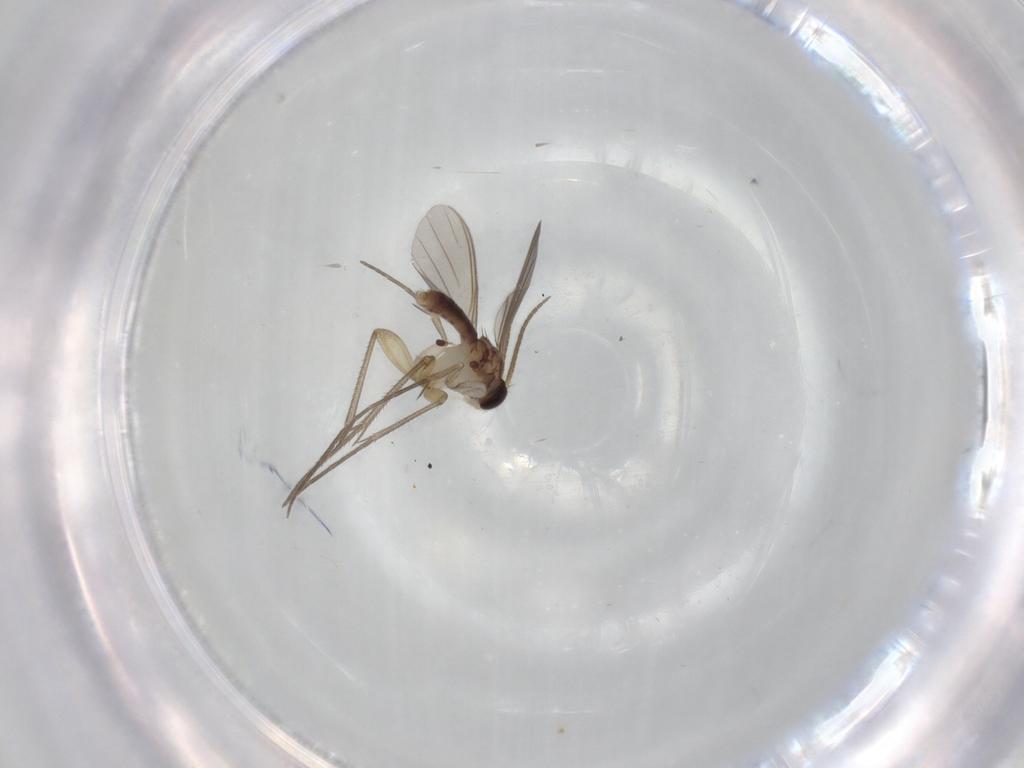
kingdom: Animalia
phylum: Arthropoda
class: Insecta
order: Diptera
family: Mycetophilidae
